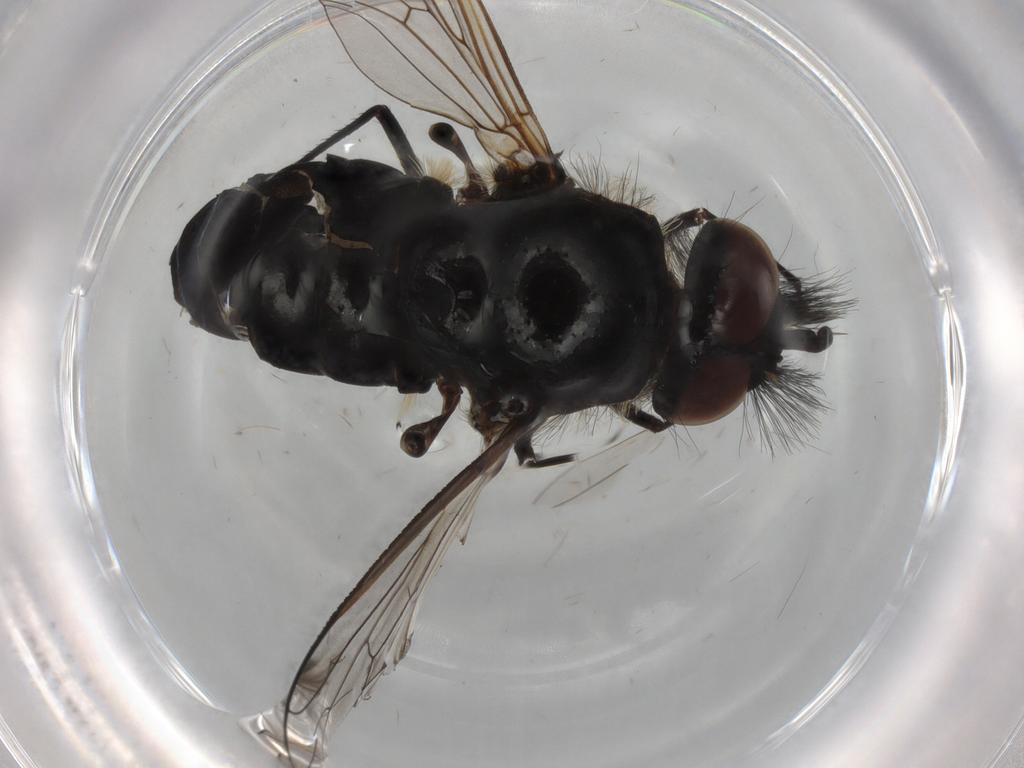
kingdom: Animalia
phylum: Arthropoda
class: Insecta
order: Diptera
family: Bombyliidae
